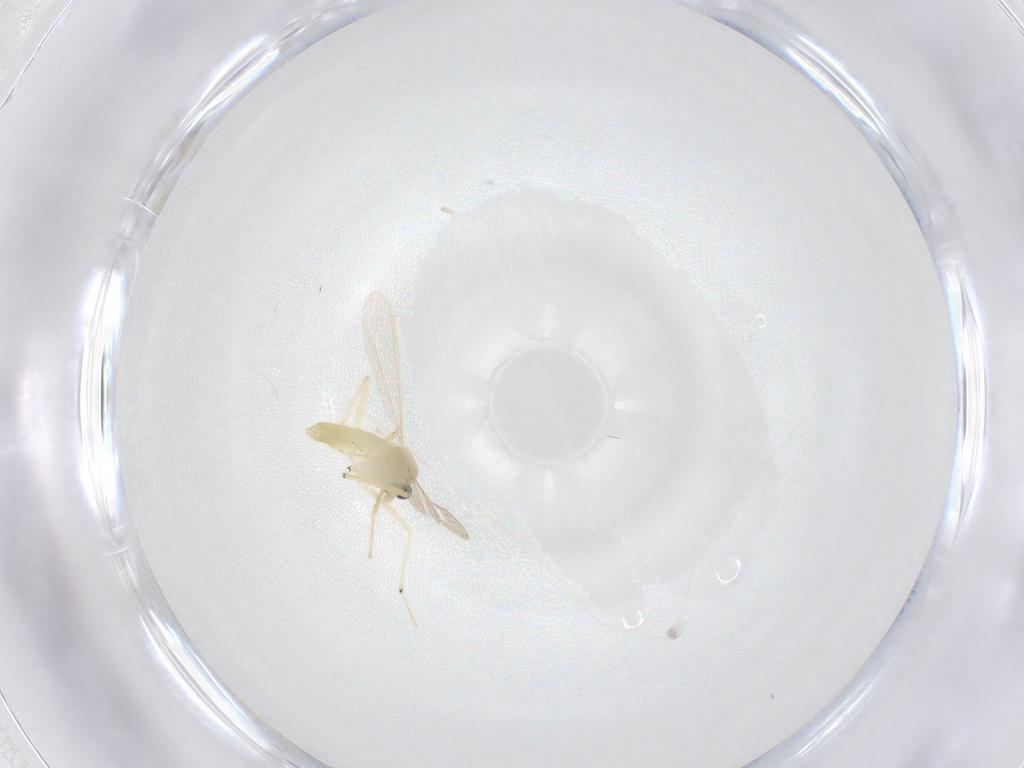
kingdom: Animalia
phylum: Arthropoda
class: Insecta
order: Diptera
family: Chironomidae
